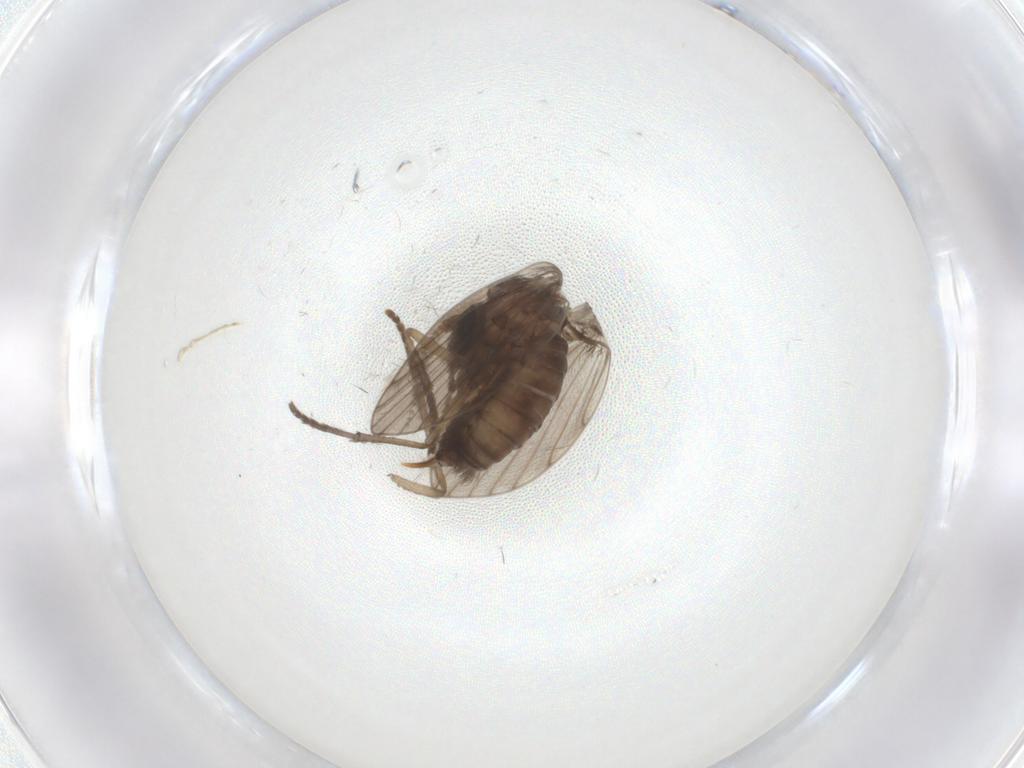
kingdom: Animalia
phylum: Arthropoda
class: Insecta
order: Diptera
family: Psychodidae
